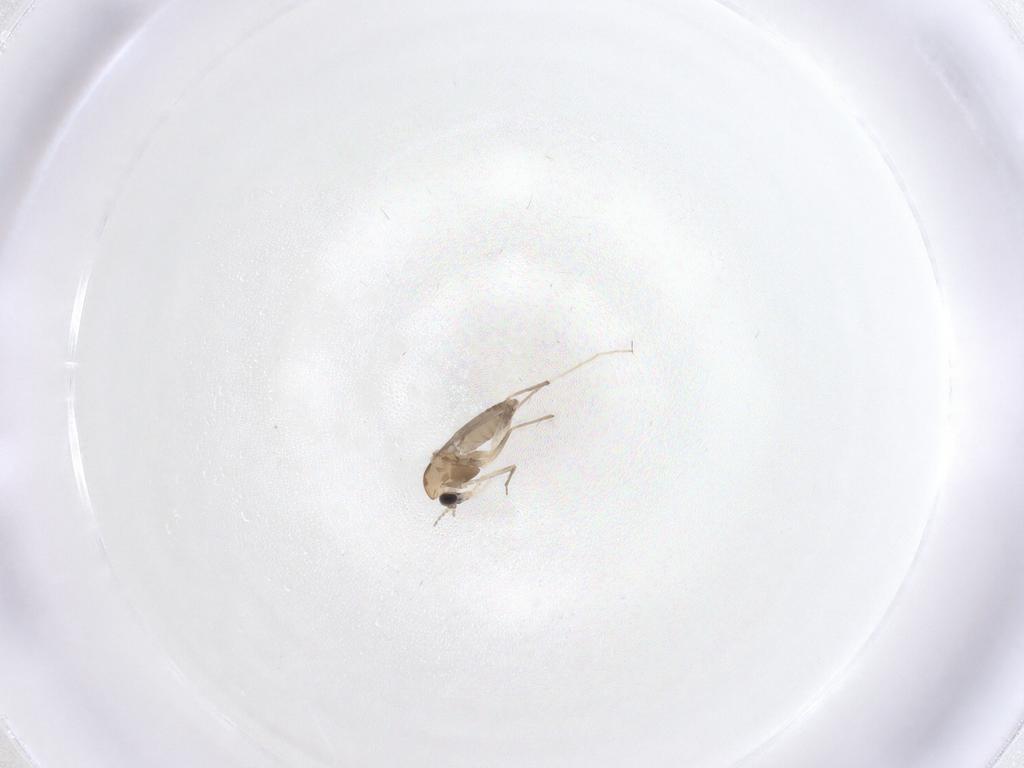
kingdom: Animalia
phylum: Arthropoda
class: Insecta
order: Diptera
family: Chironomidae
